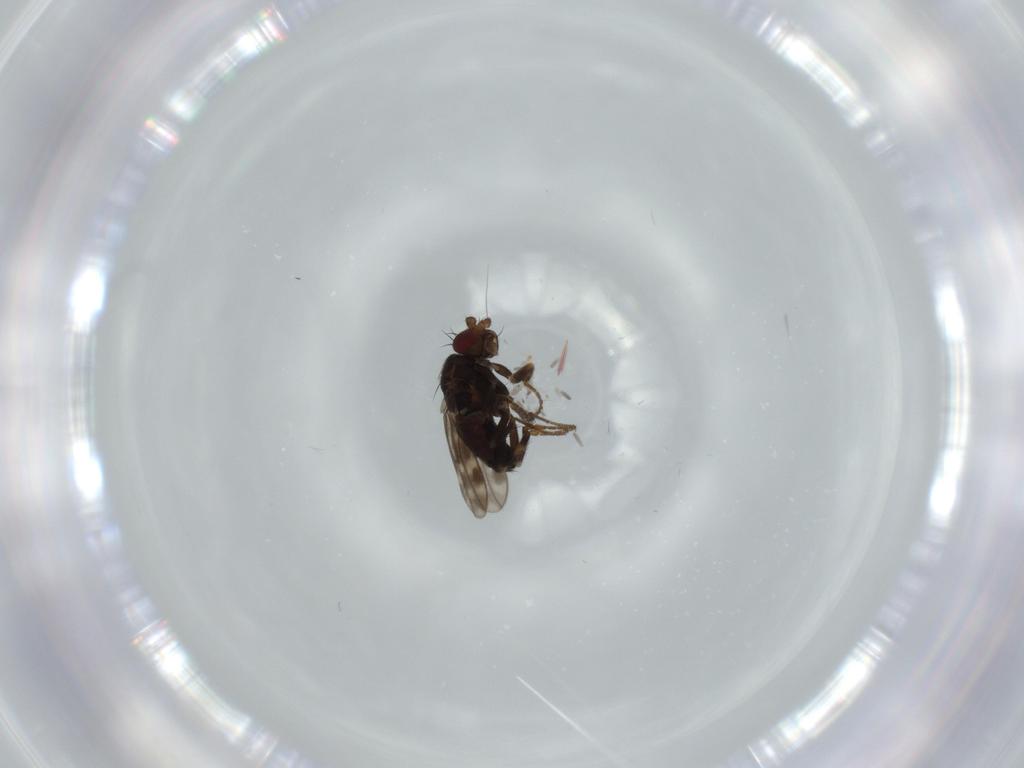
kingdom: Animalia
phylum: Arthropoda
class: Insecta
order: Diptera
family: Sphaeroceridae
